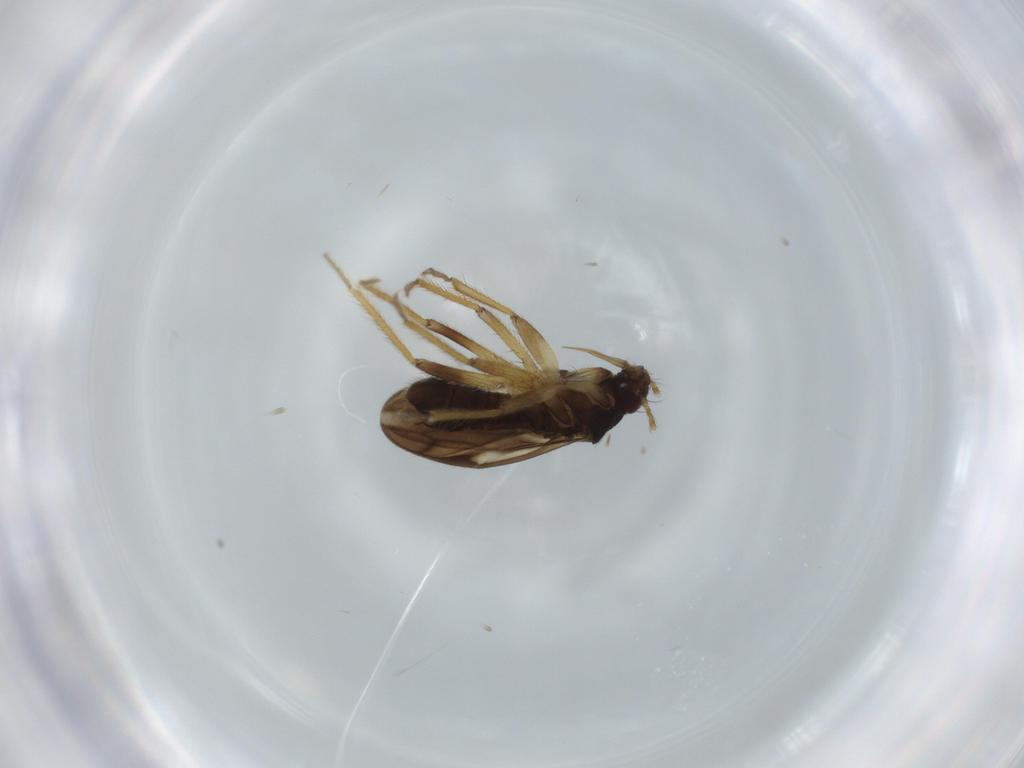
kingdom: Animalia
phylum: Arthropoda
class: Insecta
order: Hemiptera
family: Ceratocombidae
